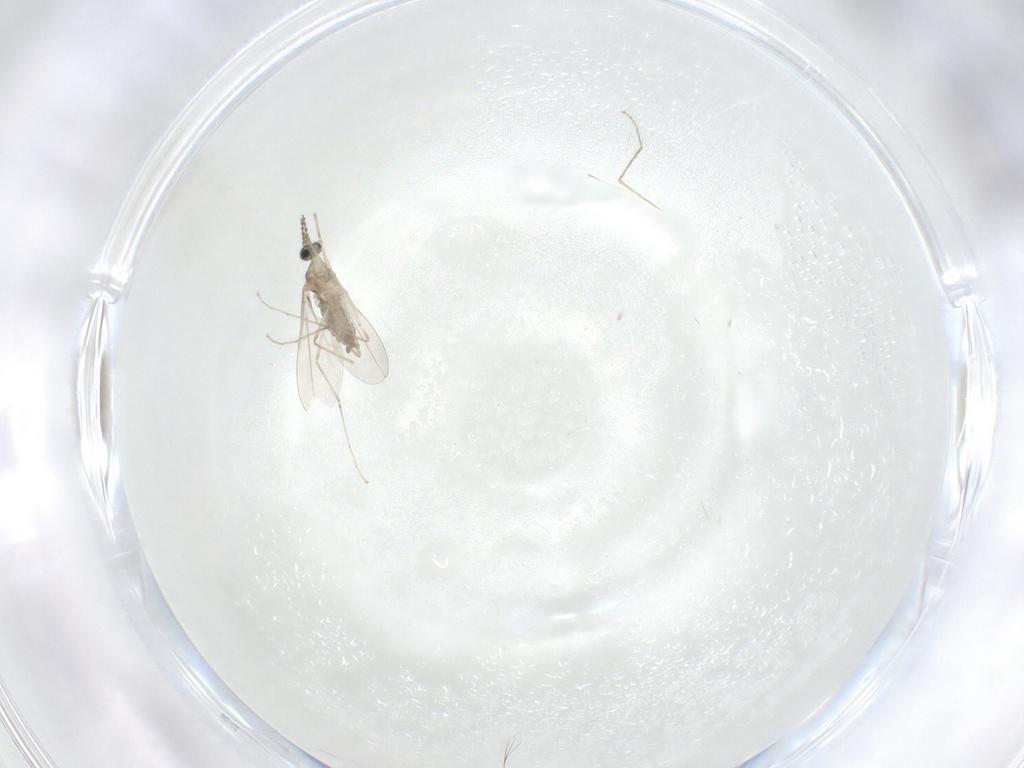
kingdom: Animalia
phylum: Arthropoda
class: Insecta
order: Diptera
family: Cecidomyiidae
